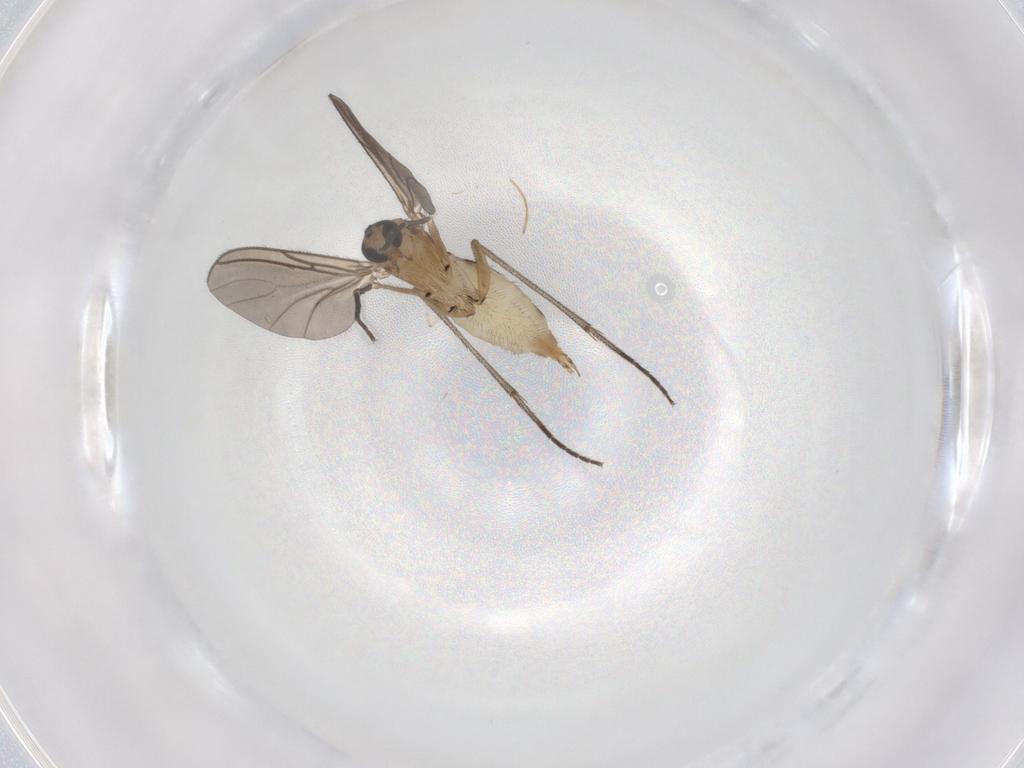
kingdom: Animalia
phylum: Arthropoda
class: Insecta
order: Diptera
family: Sciaridae
